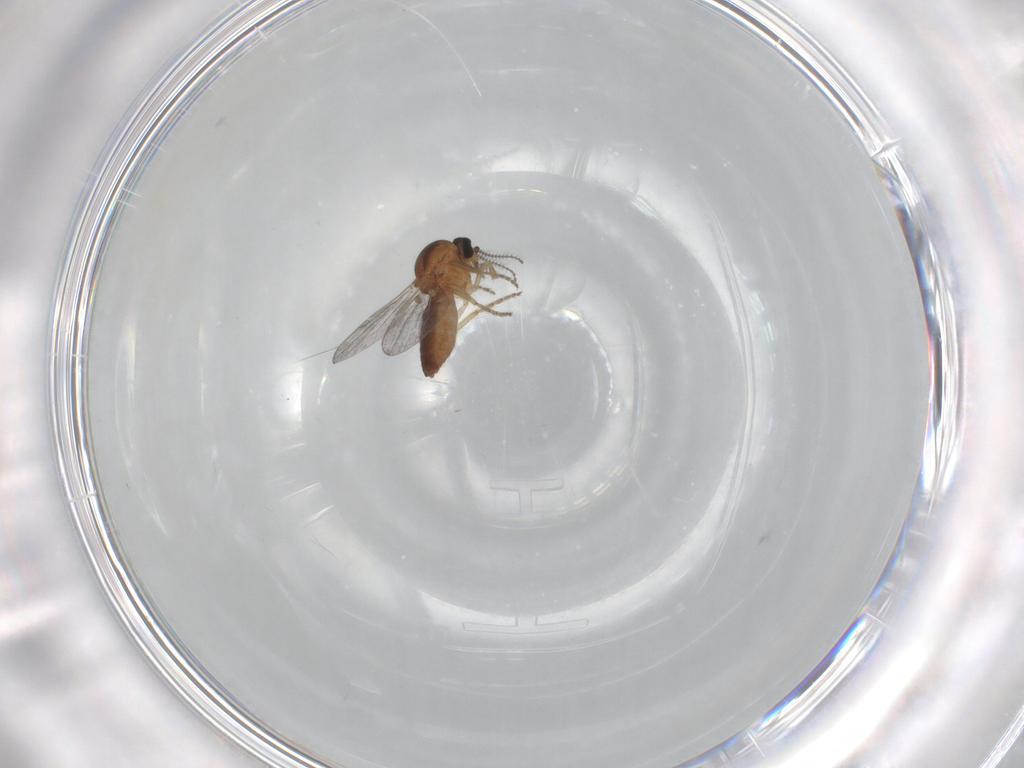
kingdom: Animalia
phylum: Arthropoda
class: Insecta
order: Diptera
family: Ceratopogonidae
